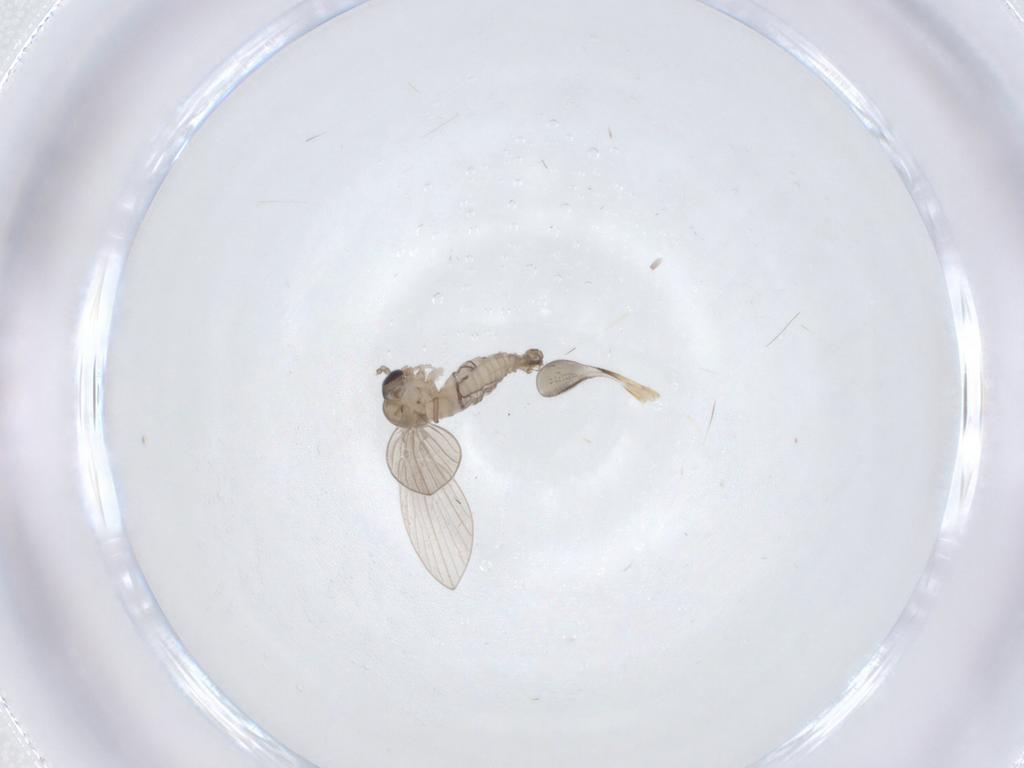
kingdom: Animalia
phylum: Arthropoda
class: Insecta
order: Diptera
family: Psychodidae
